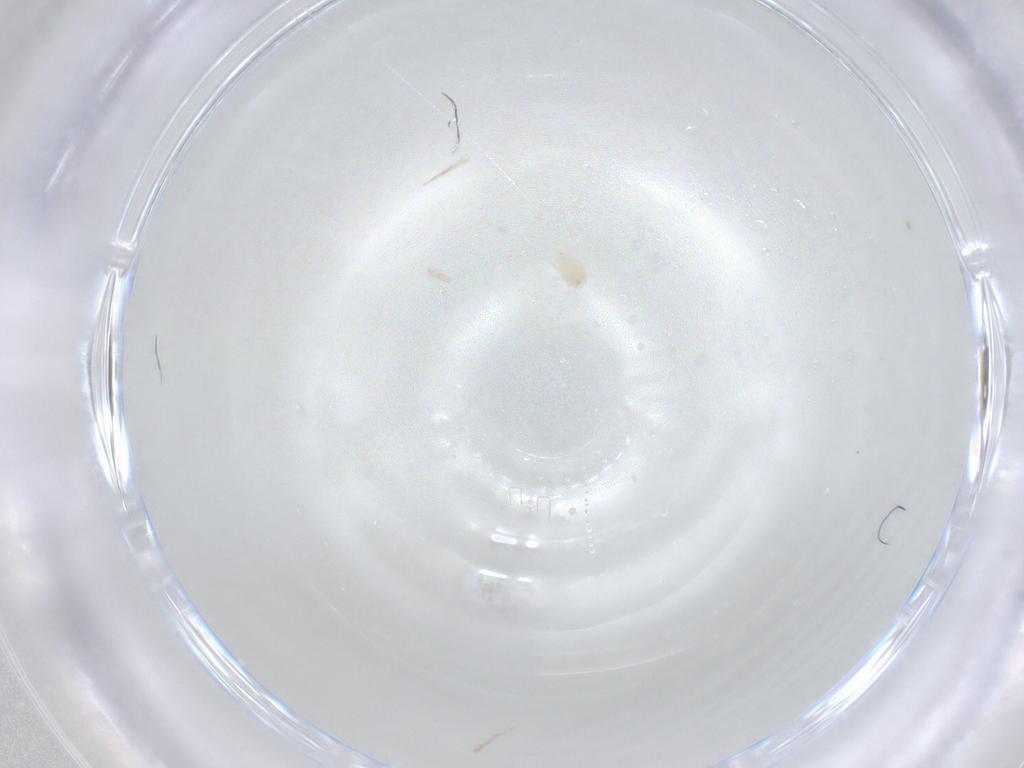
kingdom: Animalia
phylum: Arthropoda
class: Arachnida
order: Mesostigmata
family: Phytoseiidae
